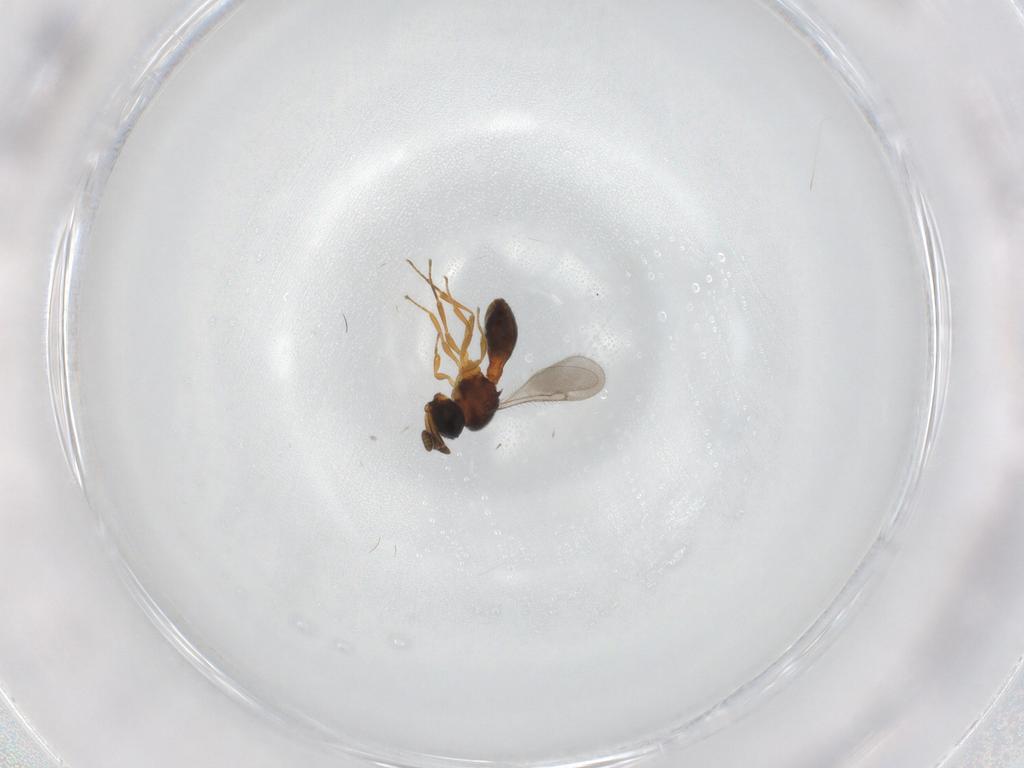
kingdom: Animalia
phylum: Arthropoda
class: Insecta
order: Hymenoptera
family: Scelionidae
